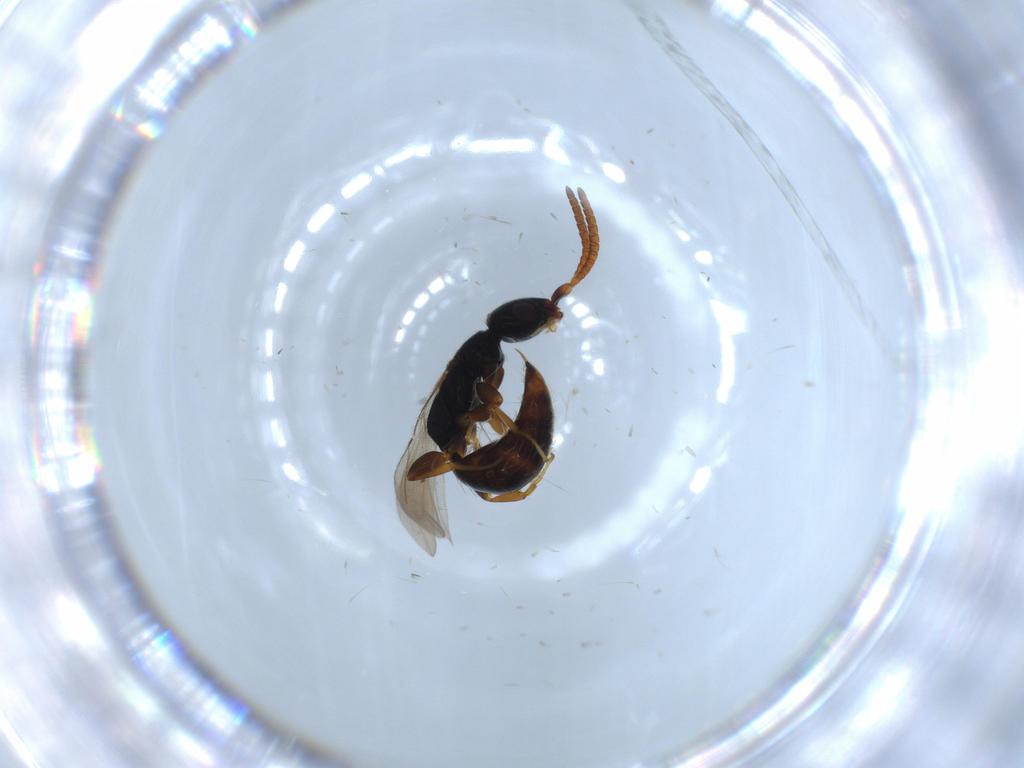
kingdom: Animalia
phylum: Arthropoda
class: Insecta
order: Hymenoptera
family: Bethylidae
